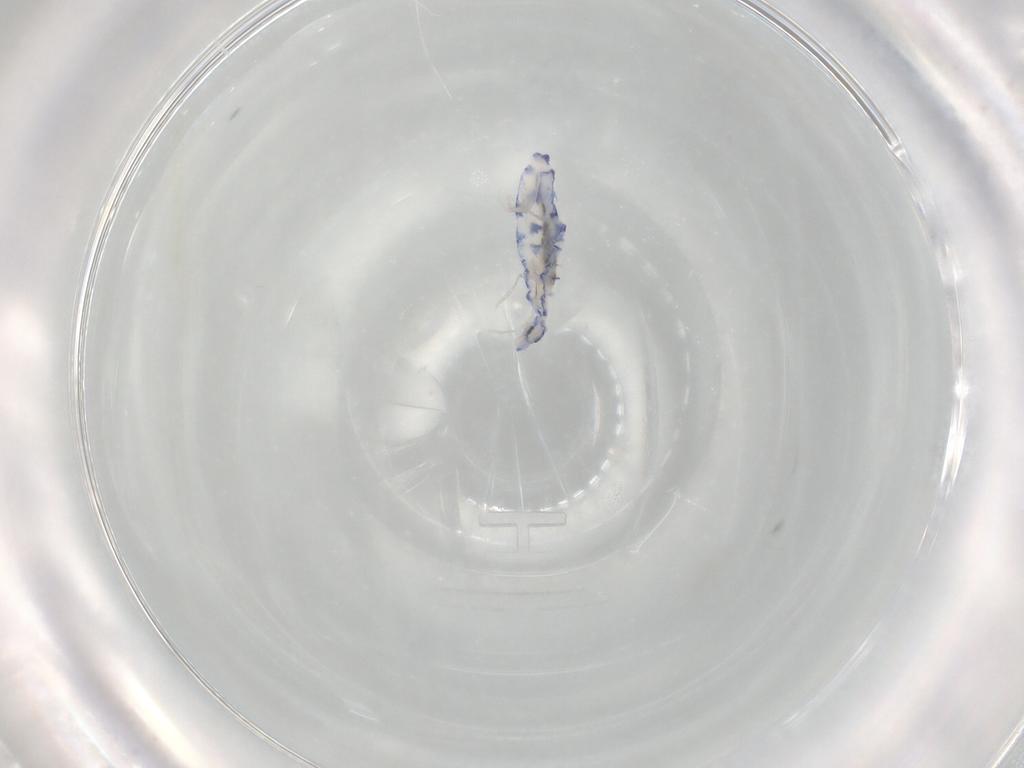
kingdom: Animalia
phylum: Arthropoda
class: Collembola
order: Entomobryomorpha
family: Entomobryidae
